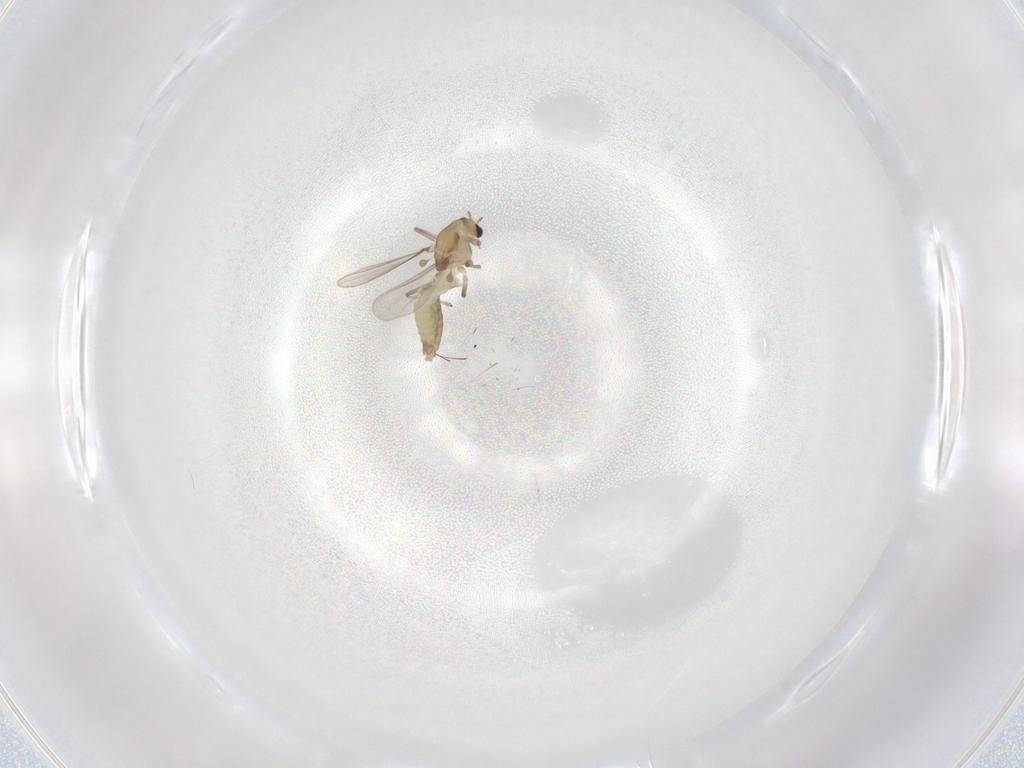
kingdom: Animalia
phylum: Arthropoda
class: Insecta
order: Diptera
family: Chironomidae
